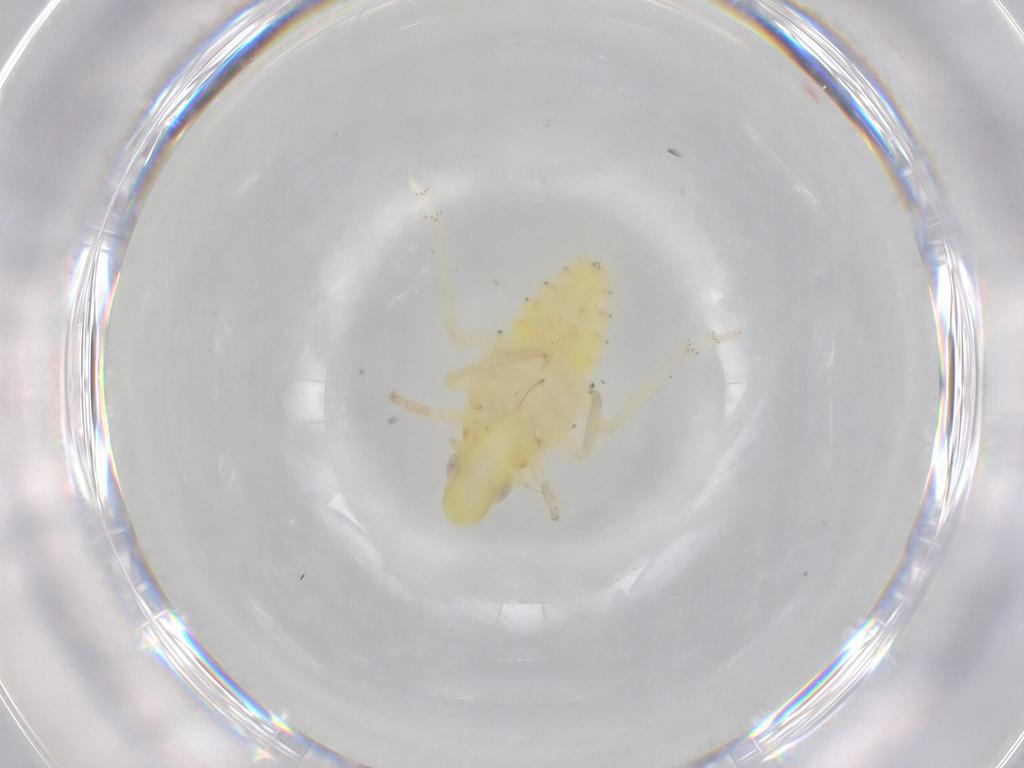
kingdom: Animalia
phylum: Arthropoda
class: Insecta
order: Hemiptera
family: Tropiduchidae
